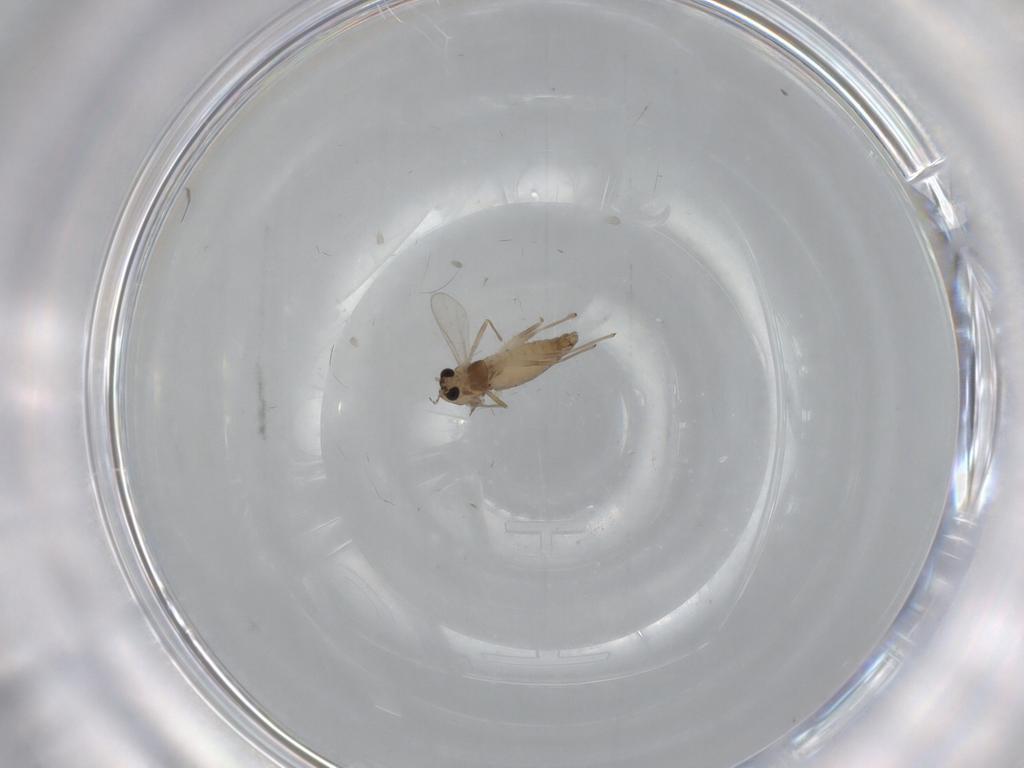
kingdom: Animalia
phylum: Arthropoda
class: Insecta
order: Diptera
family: Chironomidae
